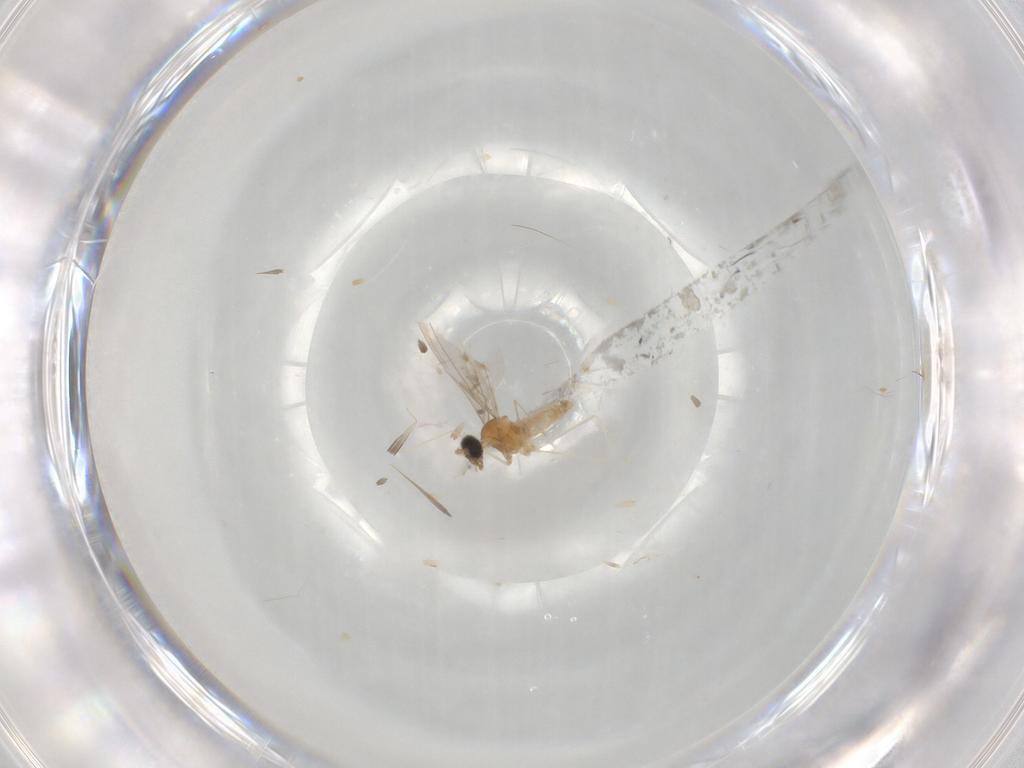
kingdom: Animalia
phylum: Arthropoda
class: Insecta
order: Diptera
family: Cecidomyiidae
